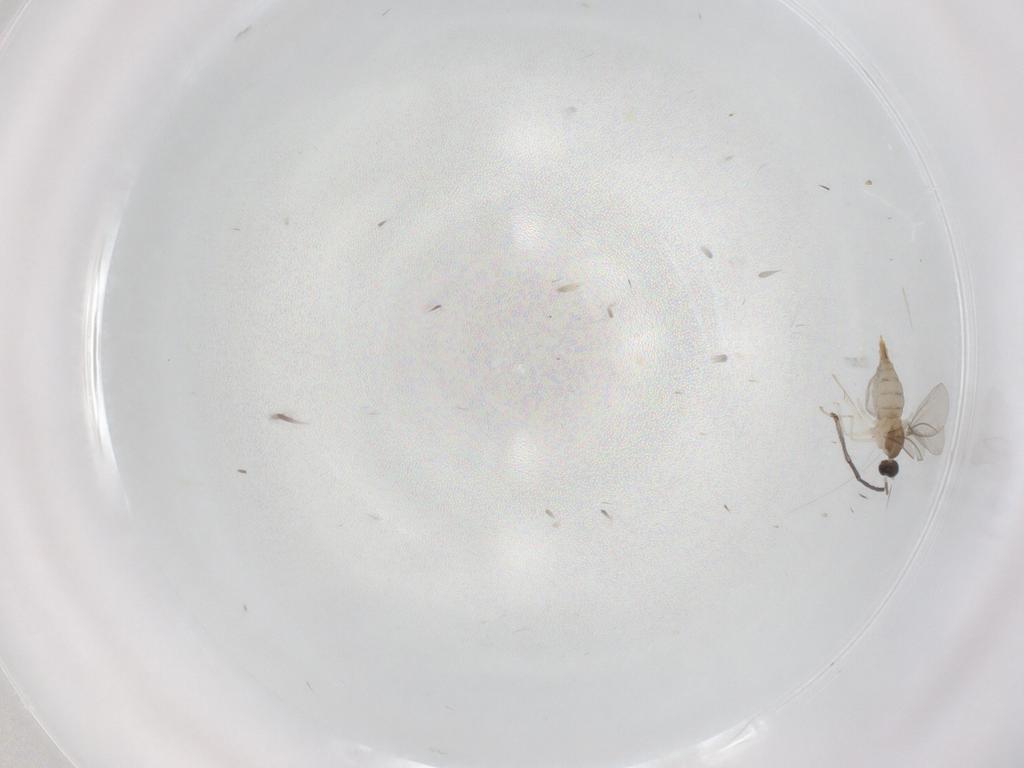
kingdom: Animalia
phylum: Arthropoda
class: Insecta
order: Diptera
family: Cecidomyiidae
